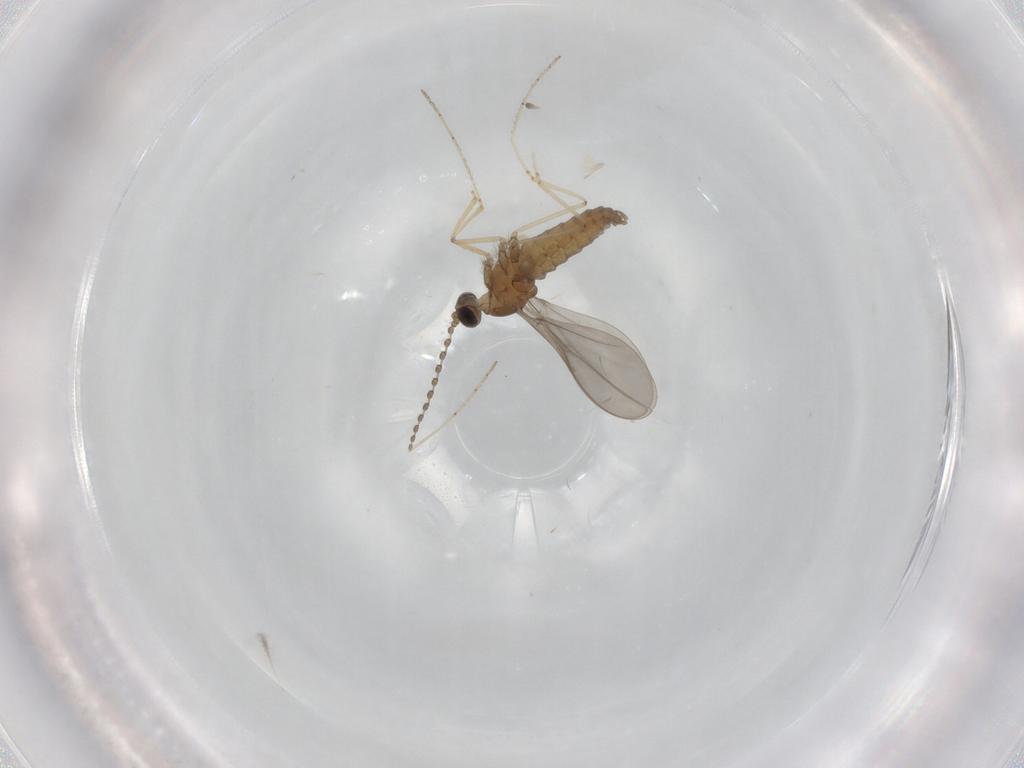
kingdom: Animalia
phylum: Arthropoda
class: Insecta
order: Diptera
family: Cecidomyiidae
